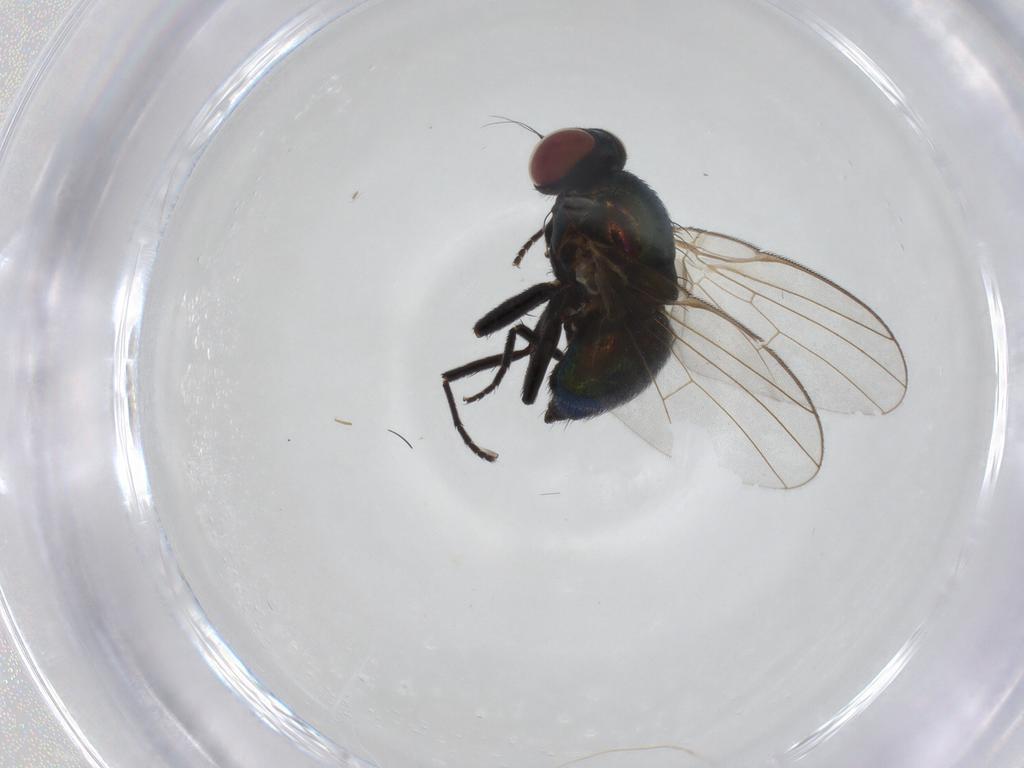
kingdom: Animalia
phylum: Arthropoda
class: Insecta
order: Diptera
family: Agromyzidae
